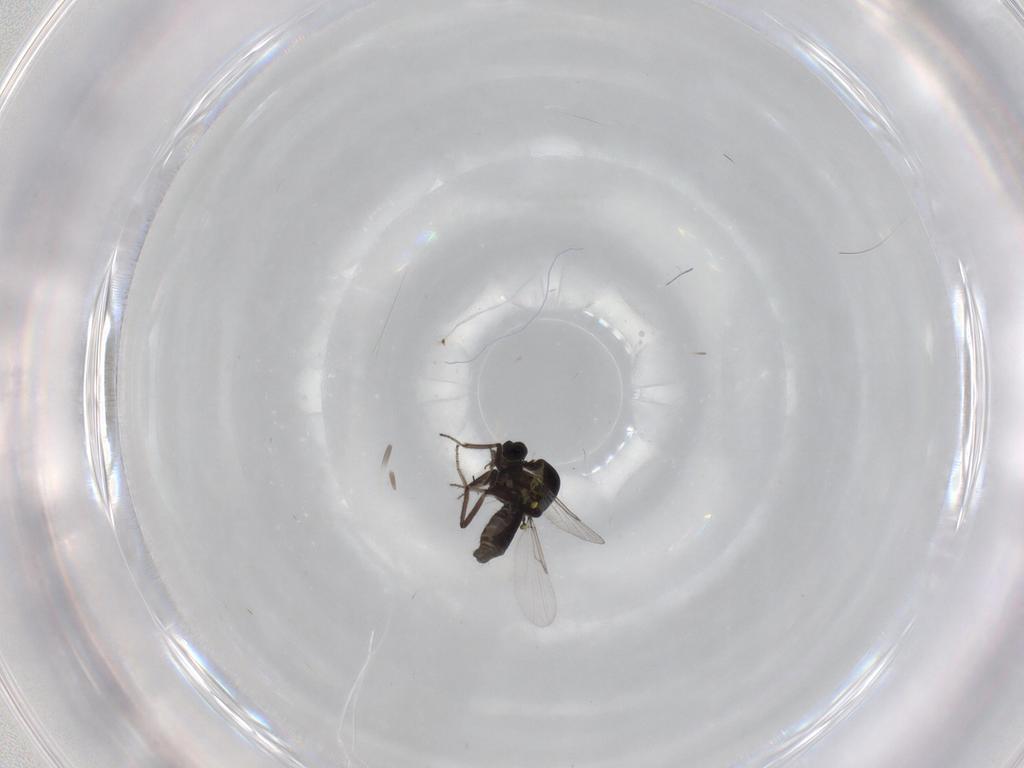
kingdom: Animalia
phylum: Arthropoda
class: Insecta
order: Diptera
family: Ceratopogonidae
